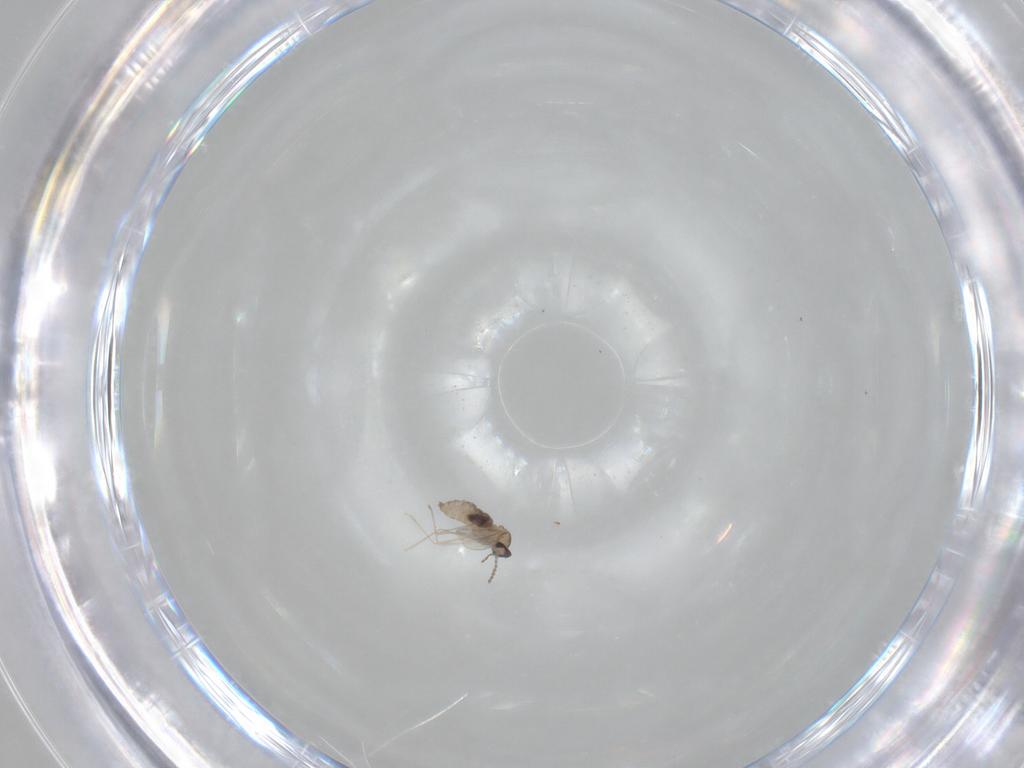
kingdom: Animalia
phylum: Arthropoda
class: Insecta
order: Diptera
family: Cecidomyiidae
